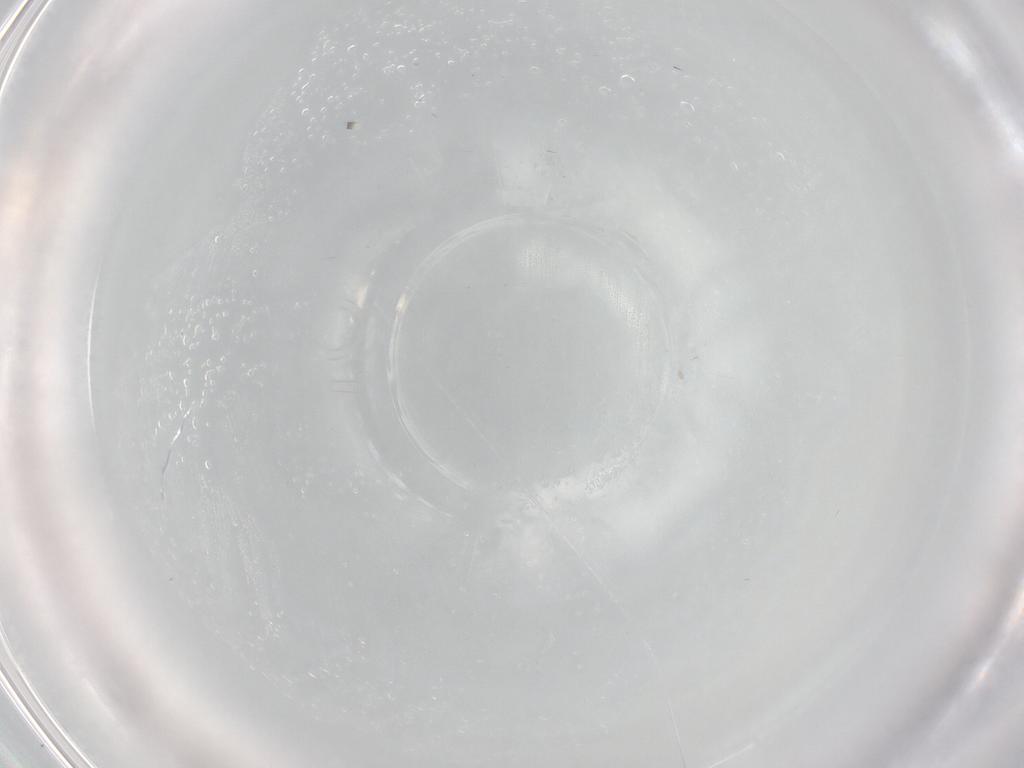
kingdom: Animalia
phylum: Arthropoda
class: Insecta
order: Diptera
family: Cecidomyiidae
